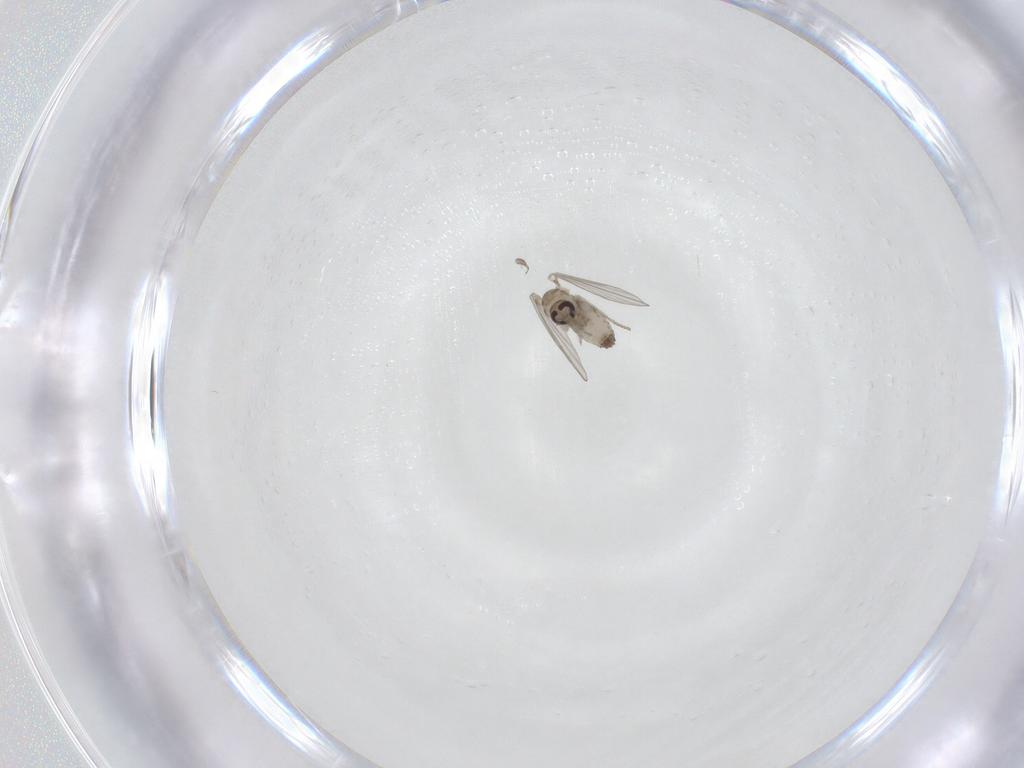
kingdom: Animalia
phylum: Arthropoda
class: Insecta
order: Diptera
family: Psychodidae
